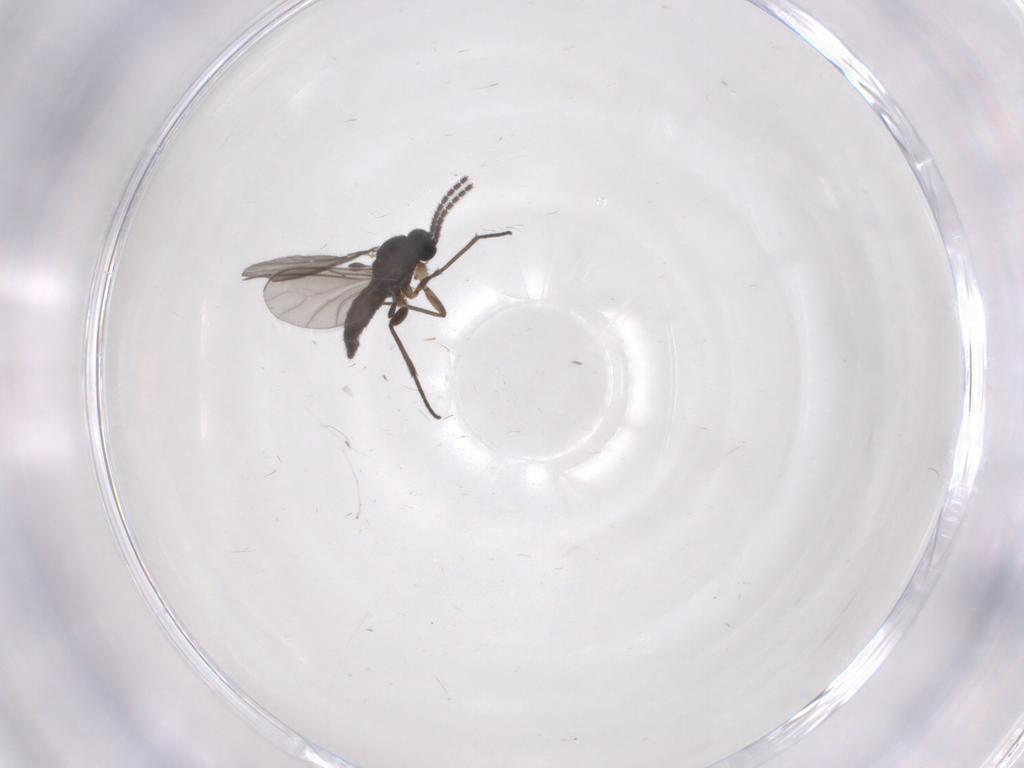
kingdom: Animalia
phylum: Arthropoda
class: Insecta
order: Diptera
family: Sciaridae
